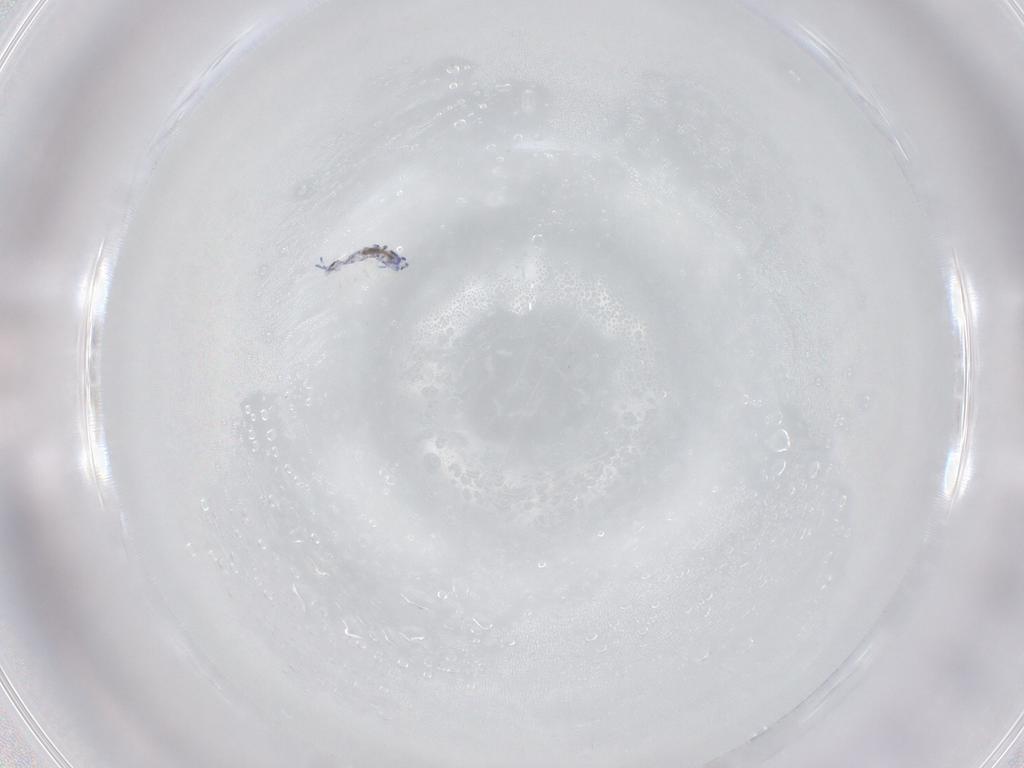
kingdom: Animalia
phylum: Arthropoda
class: Collembola
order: Entomobryomorpha
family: Entomobryidae
